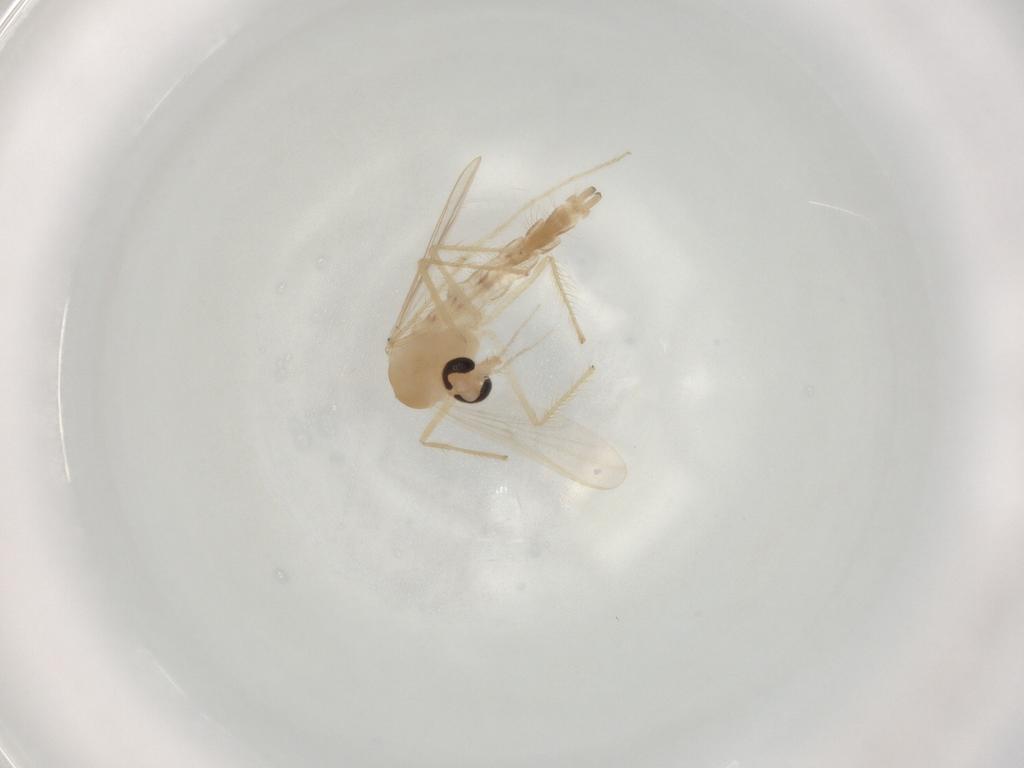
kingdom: Animalia
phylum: Arthropoda
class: Insecta
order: Diptera
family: Chironomidae
